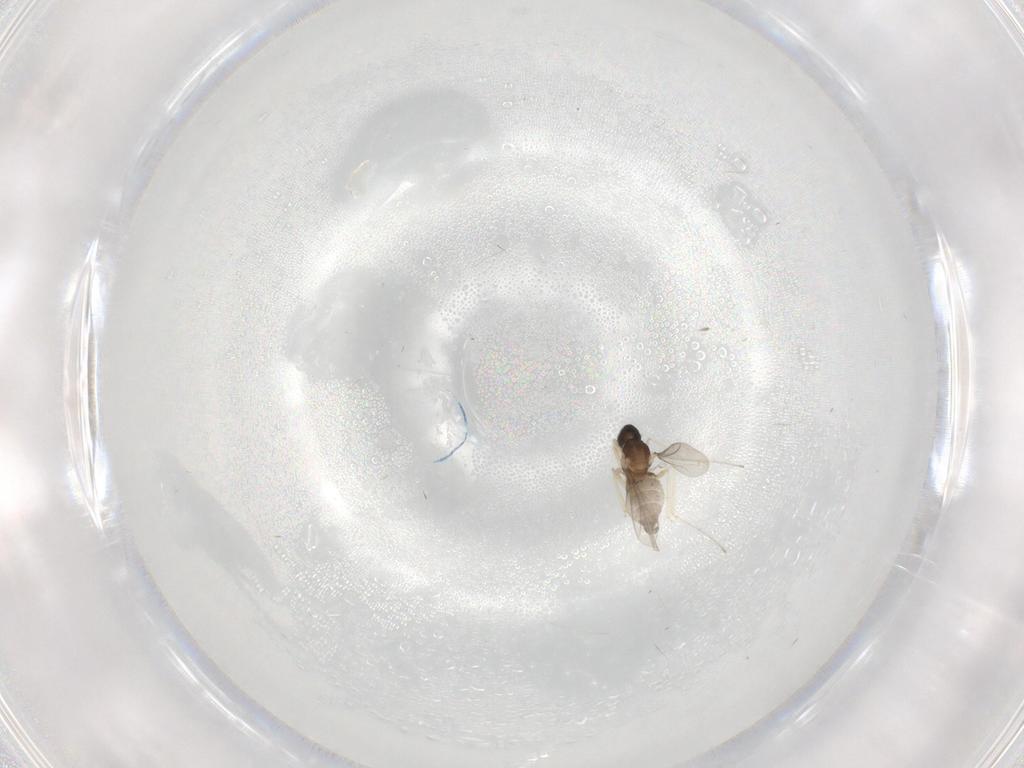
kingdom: Animalia
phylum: Arthropoda
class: Insecta
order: Diptera
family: Cecidomyiidae
